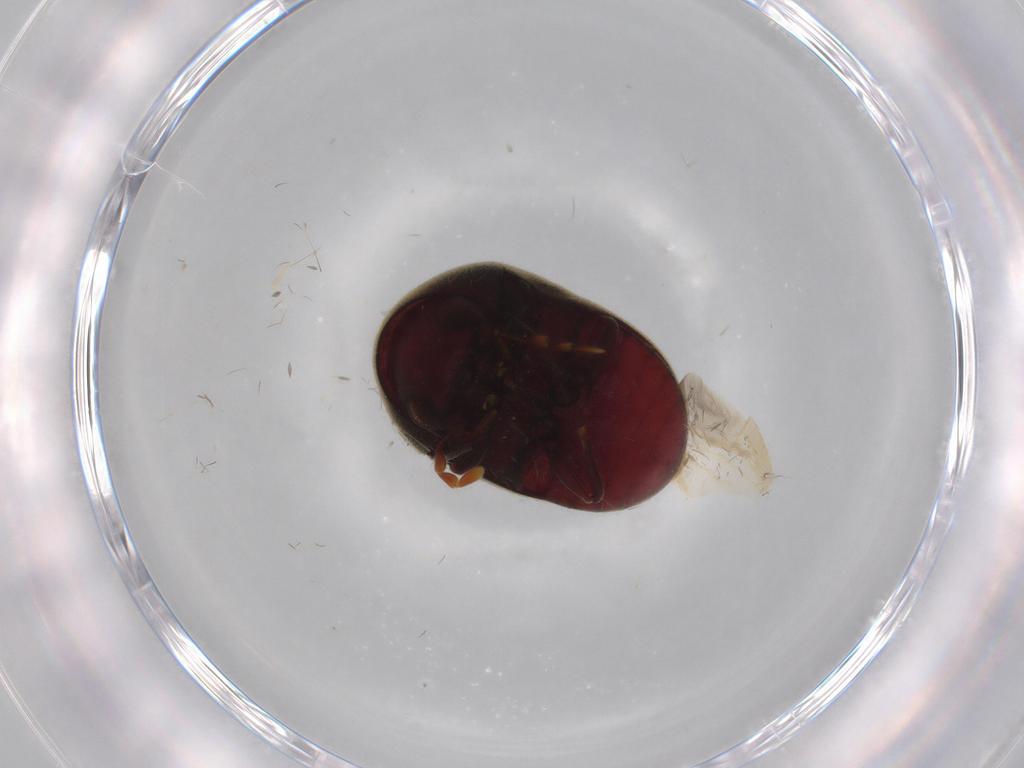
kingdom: Animalia
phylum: Arthropoda
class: Insecta
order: Coleoptera
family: Ptinidae
